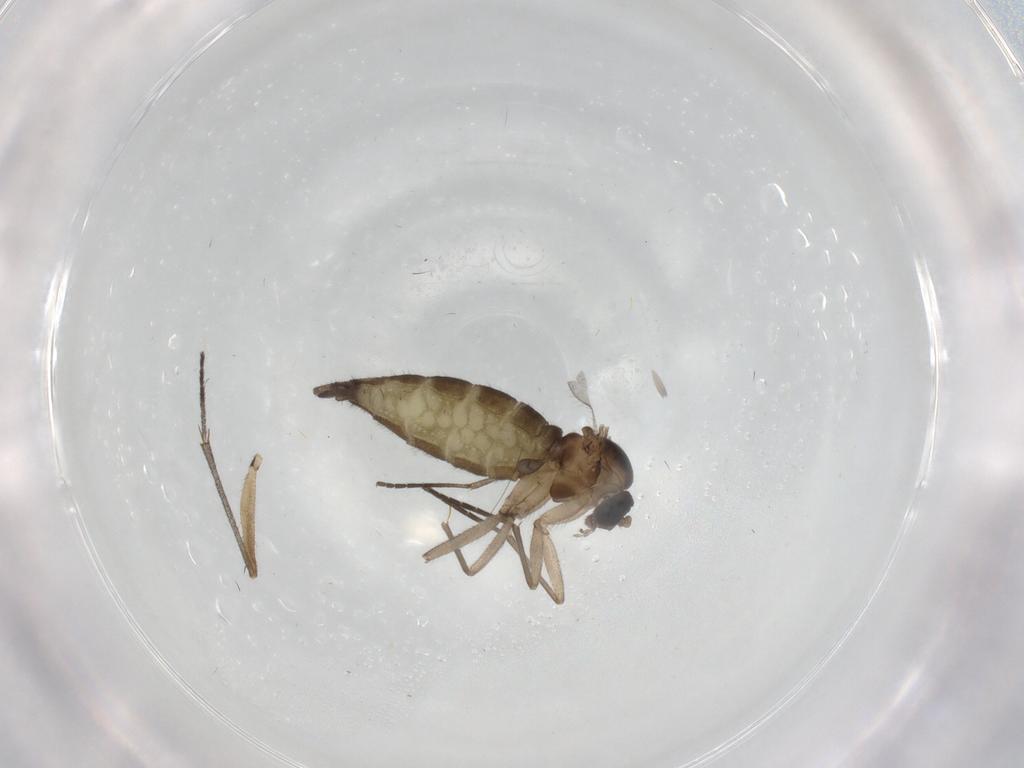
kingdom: Animalia
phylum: Arthropoda
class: Insecta
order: Diptera
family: Sciaridae
